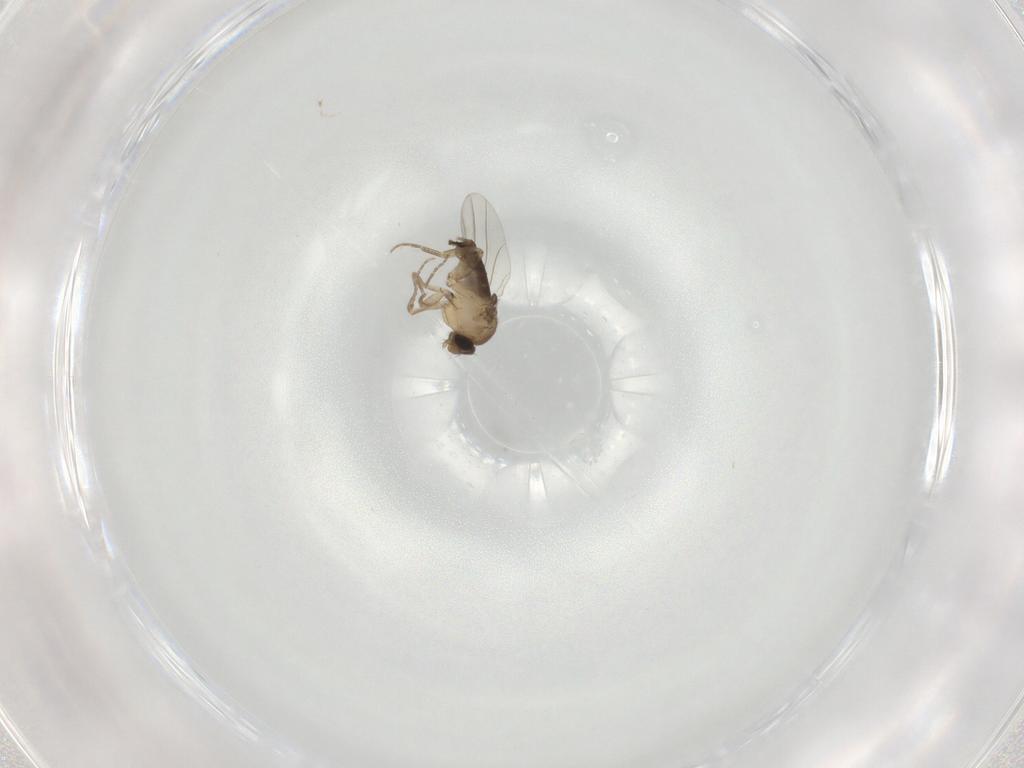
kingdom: Animalia
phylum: Arthropoda
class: Insecta
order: Diptera
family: Phoridae
